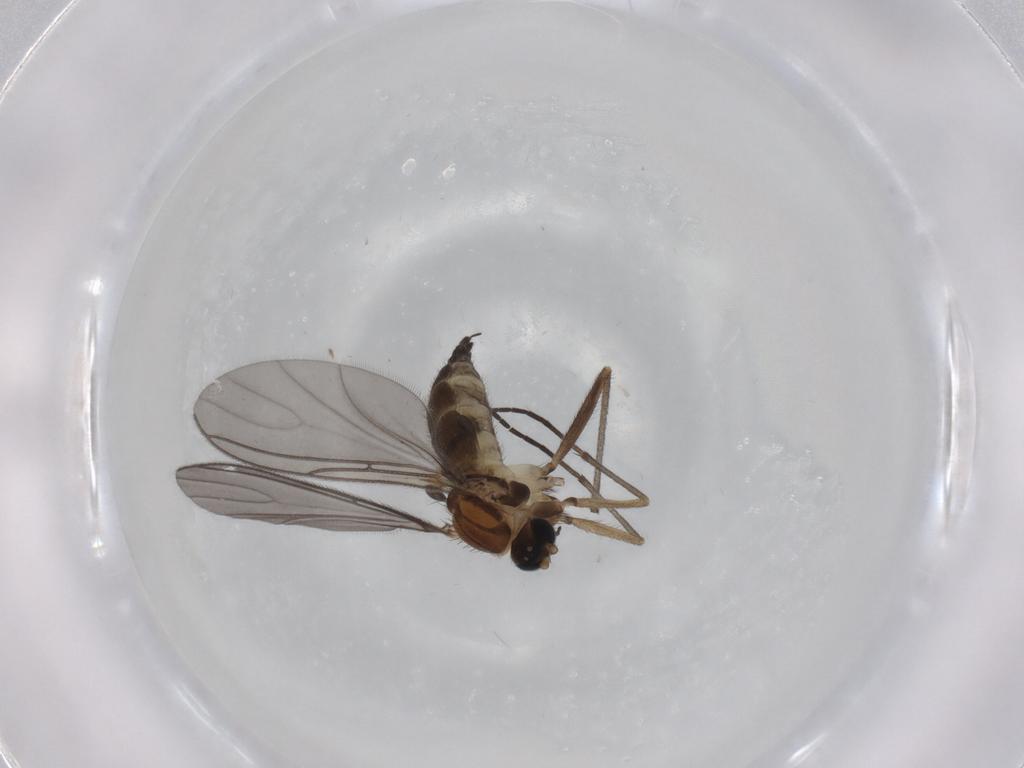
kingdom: Animalia
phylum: Arthropoda
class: Insecta
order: Diptera
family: Sciaridae
